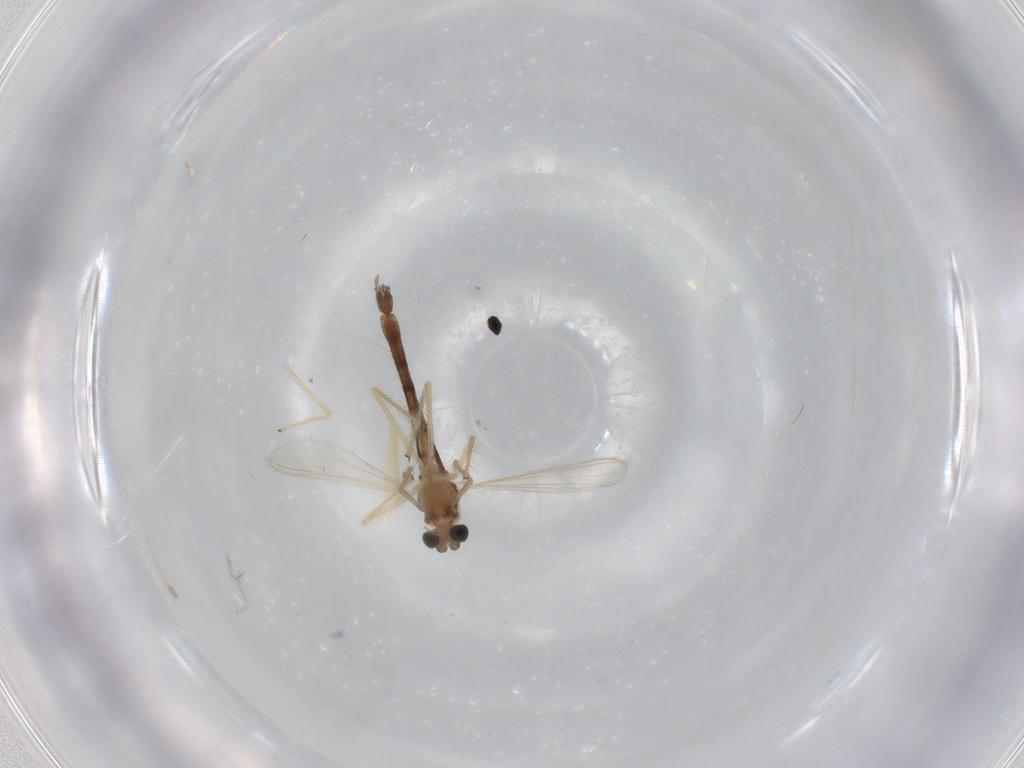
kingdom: Animalia
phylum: Arthropoda
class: Insecta
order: Diptera
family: Chironomidae
